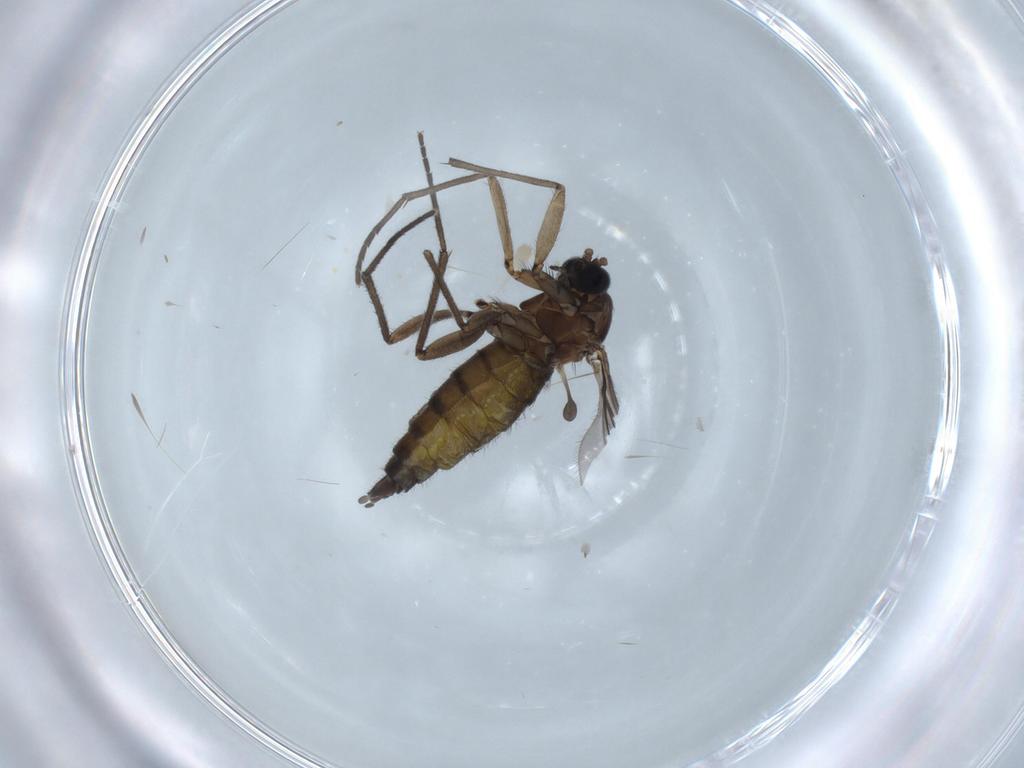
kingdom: Animalia
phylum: Arthropoda
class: Insecta
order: Diptera
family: Sciaridae
